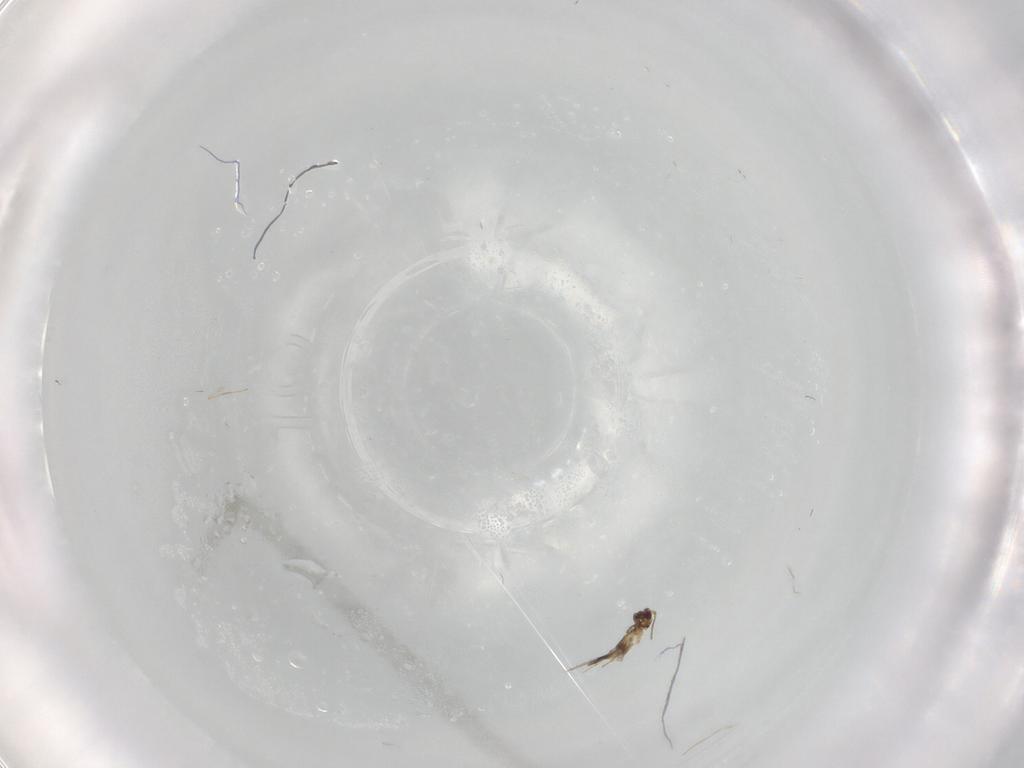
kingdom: Animalia
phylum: Arthropoda
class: Insecta
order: Hymenoptera
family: Mymaridae
